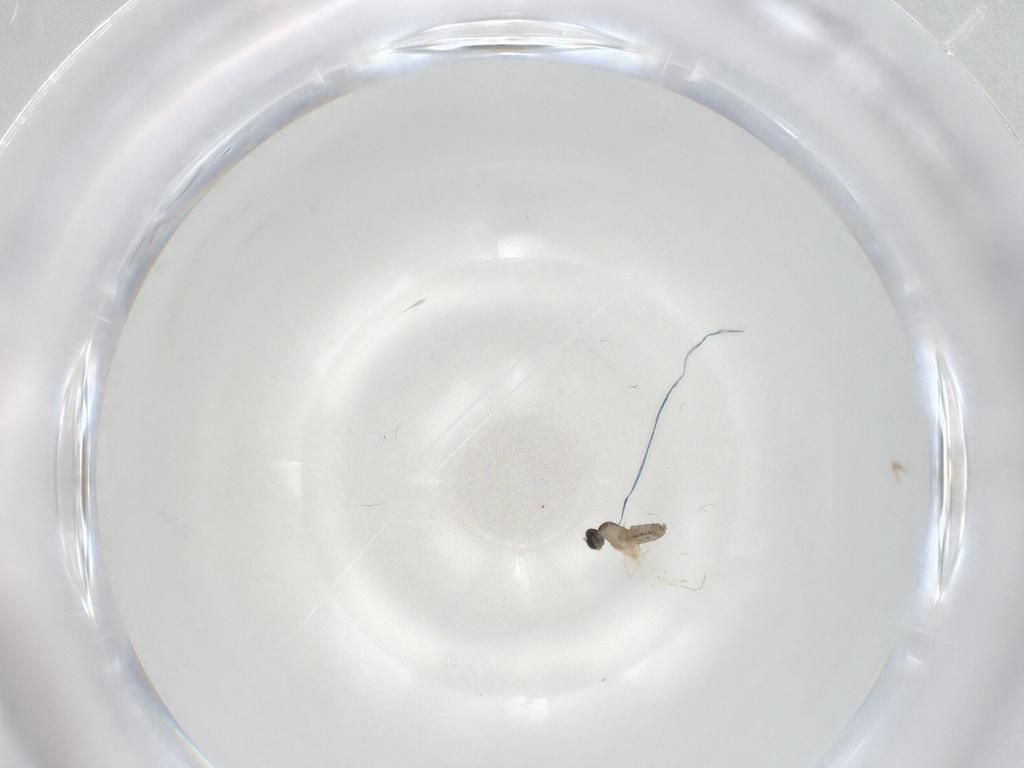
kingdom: Animalia
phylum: Arthropoda
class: Insecta
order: Diptera
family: Cecidomyiidae
